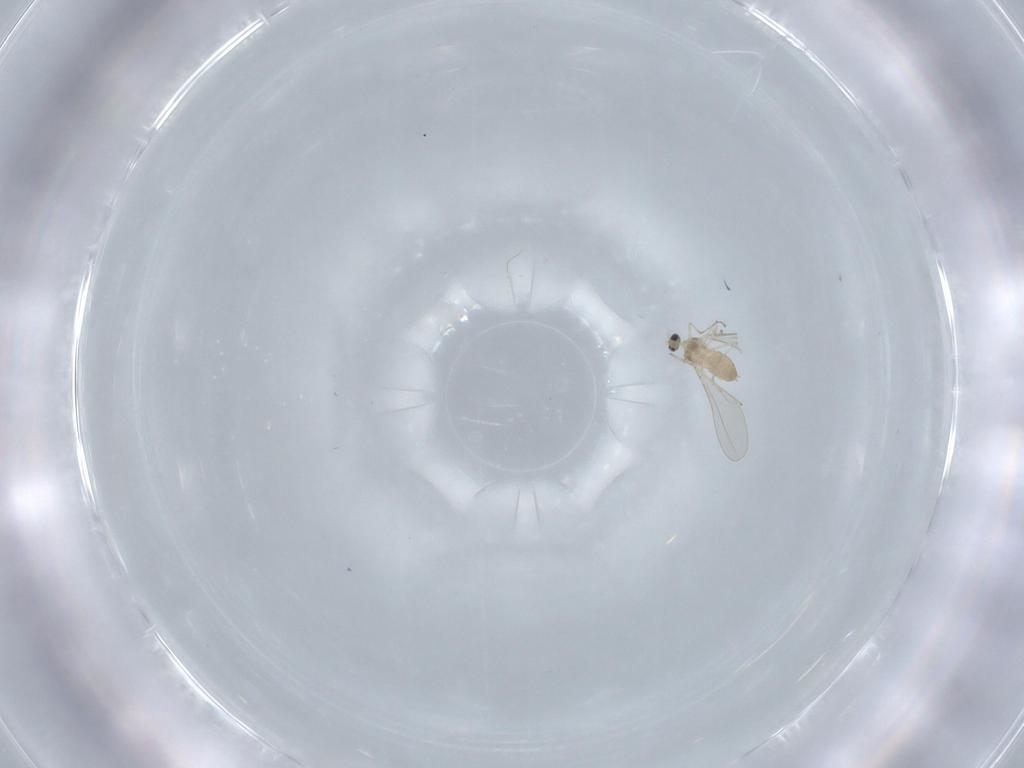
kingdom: Animalia
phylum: Arthropoda
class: Insecta
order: Diptera
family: Cecidomyiidae
